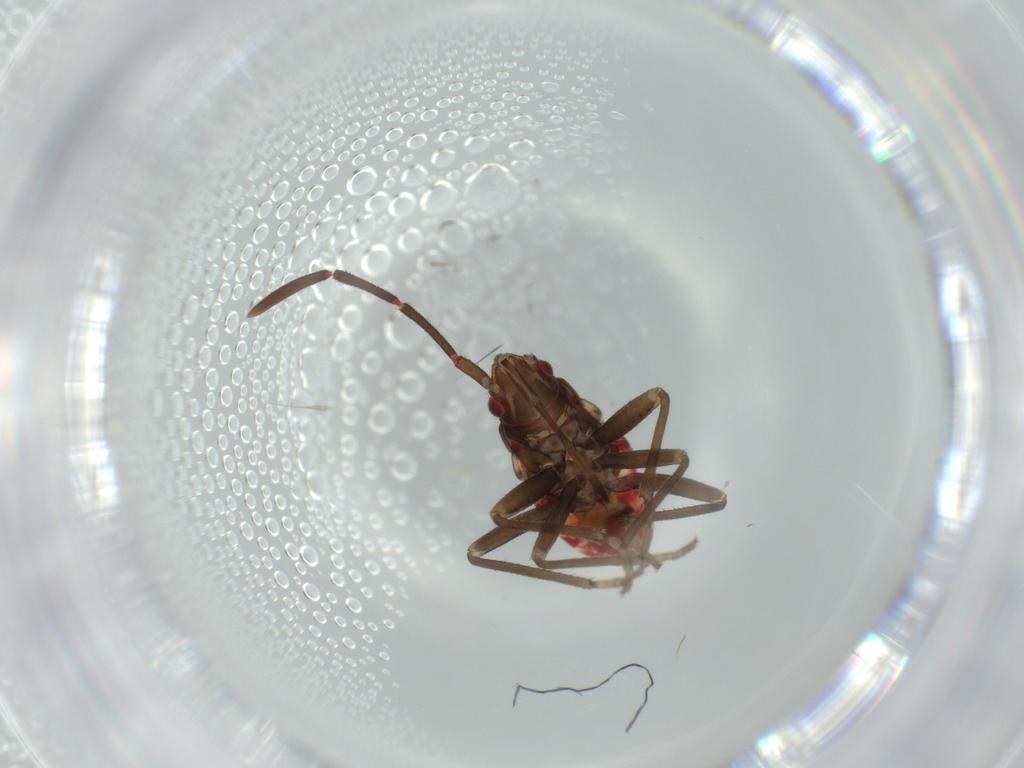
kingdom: Animalia
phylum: Arthropoda
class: Insecta
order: Hemiptera
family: Rhyparochromidae
